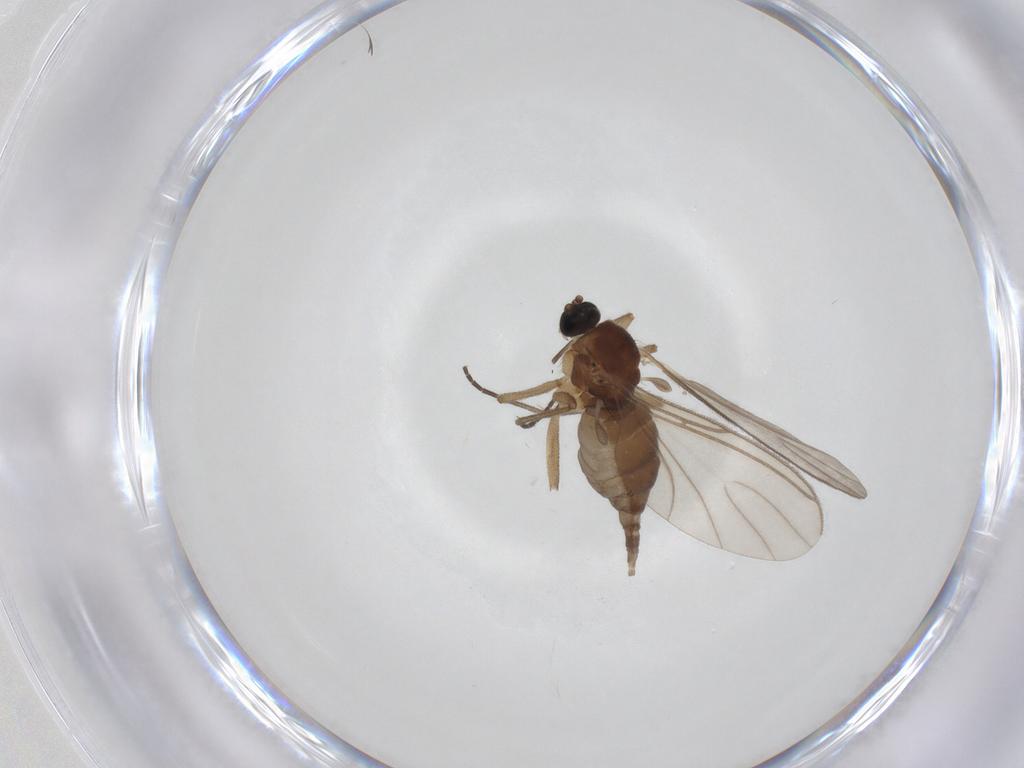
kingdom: Animalia
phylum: Arthropoda
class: Insecta
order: Diptera
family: Sciaridae
